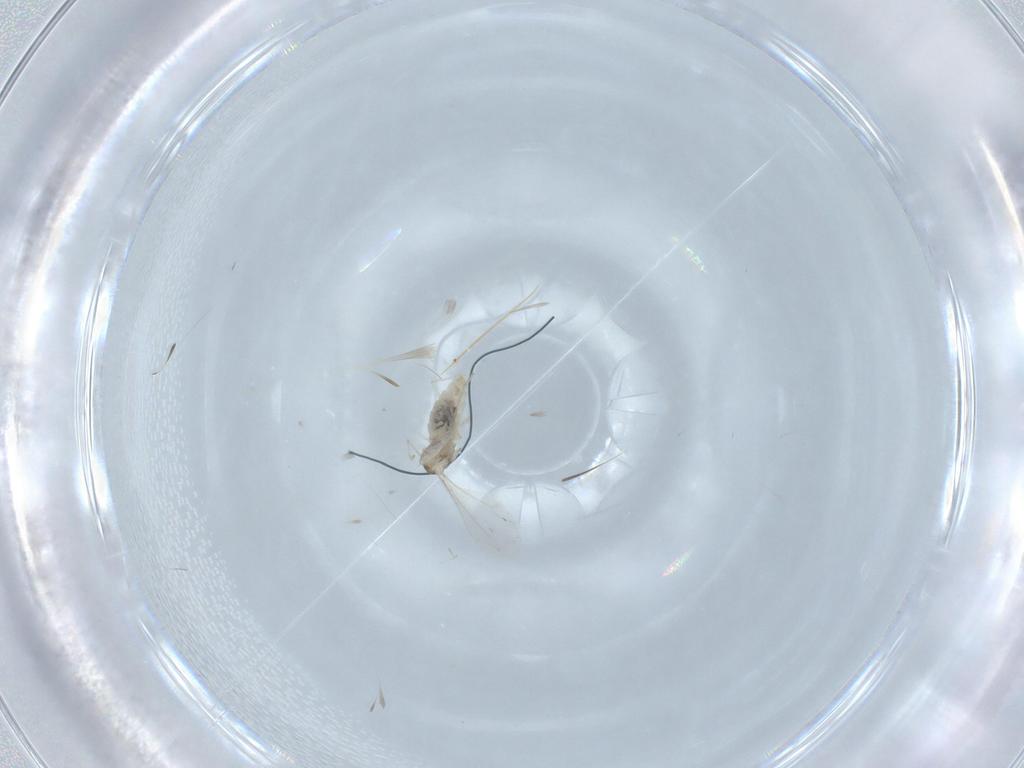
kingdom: Animalia
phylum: Arthropoda
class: Insecta
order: Diptera
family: Cecidomyiidae
